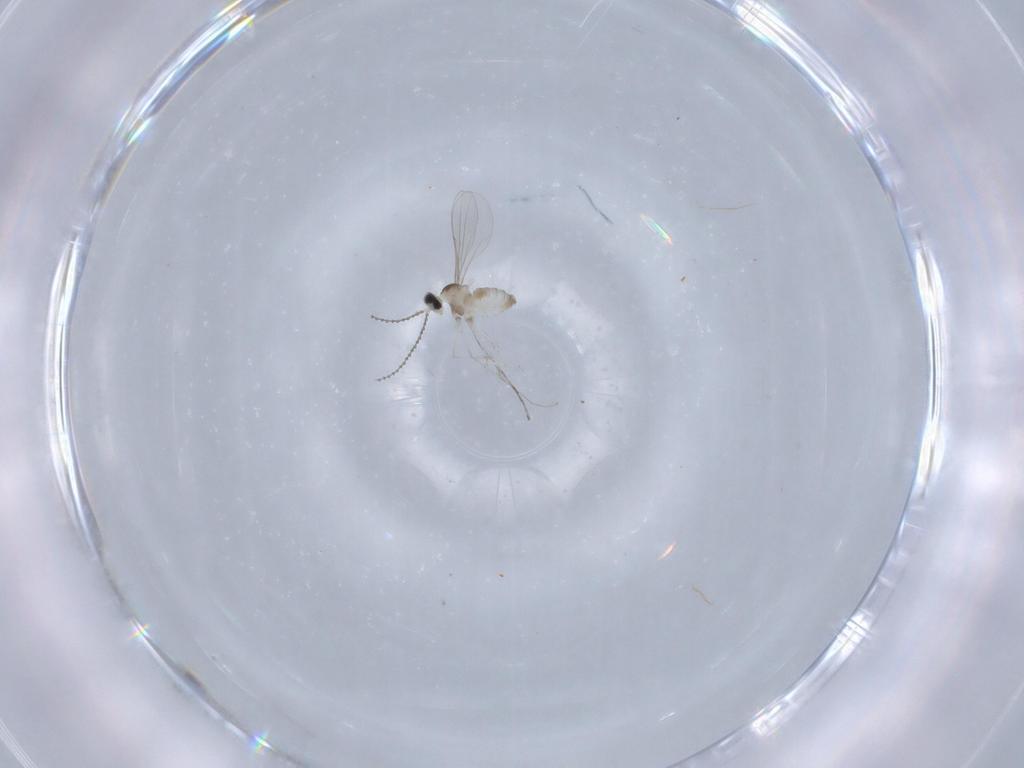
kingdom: Animalia
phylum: Arthropoda
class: Insecta
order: Diptera
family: Cecidomyiidae
